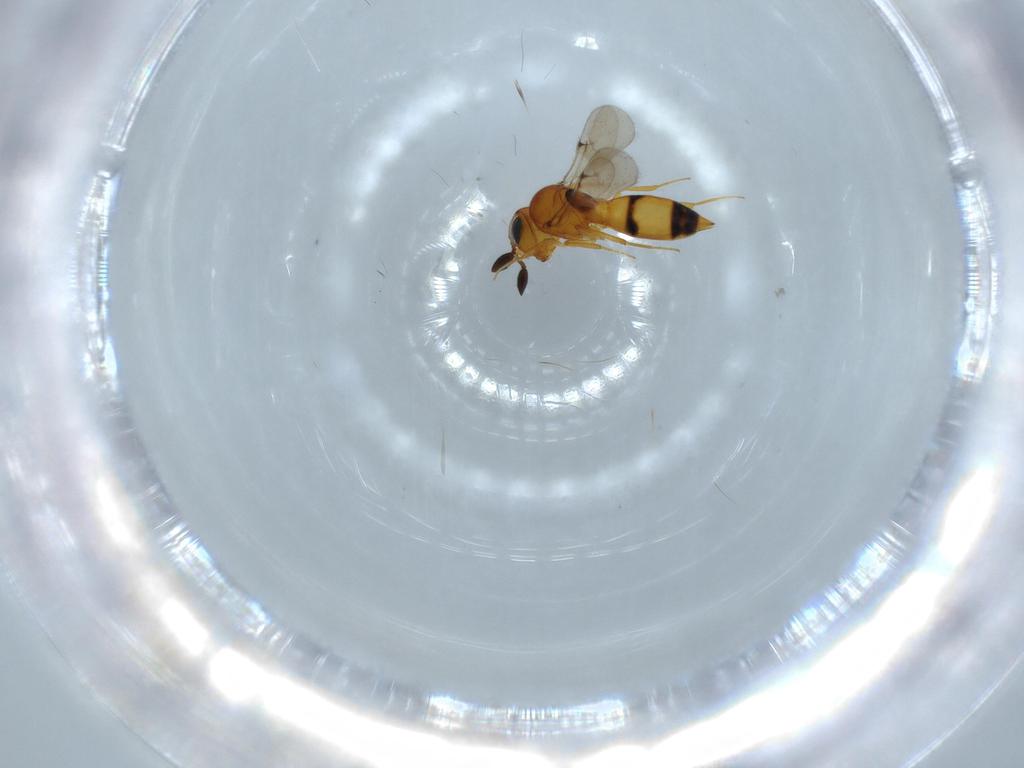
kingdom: Animalia
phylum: Arthropoda
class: Insecta
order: Hymenoptera
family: Scelionidae
